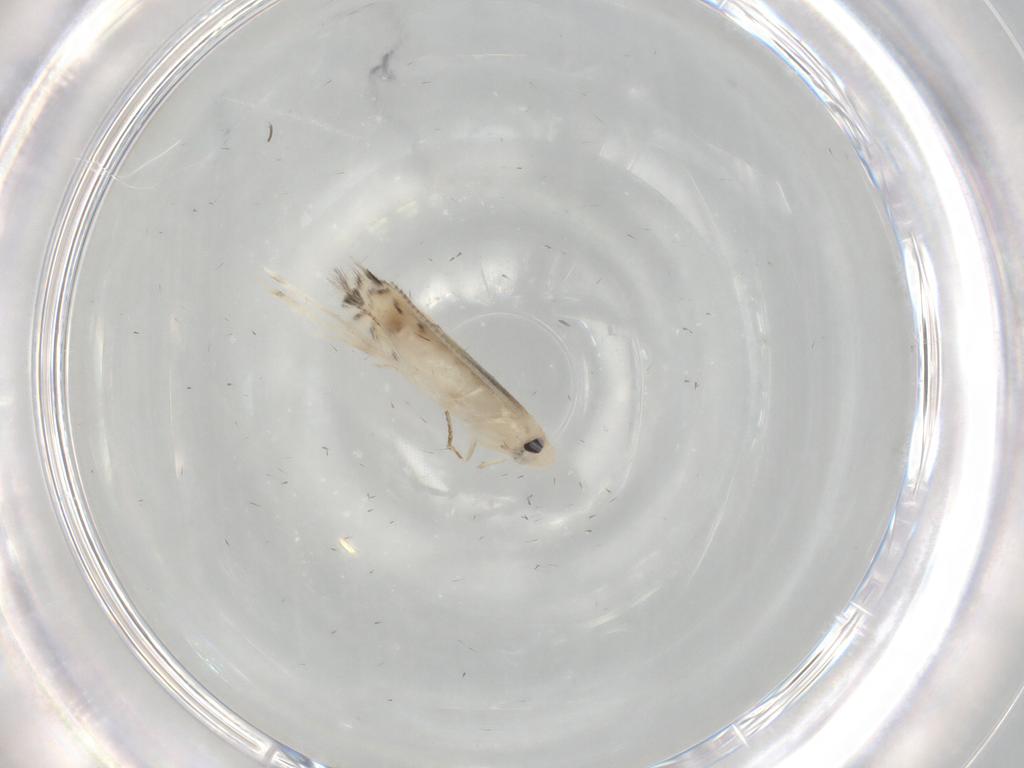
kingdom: Animalia
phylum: Arthropoda
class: Insecta
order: Lepidoptera
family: Gracillariidae
